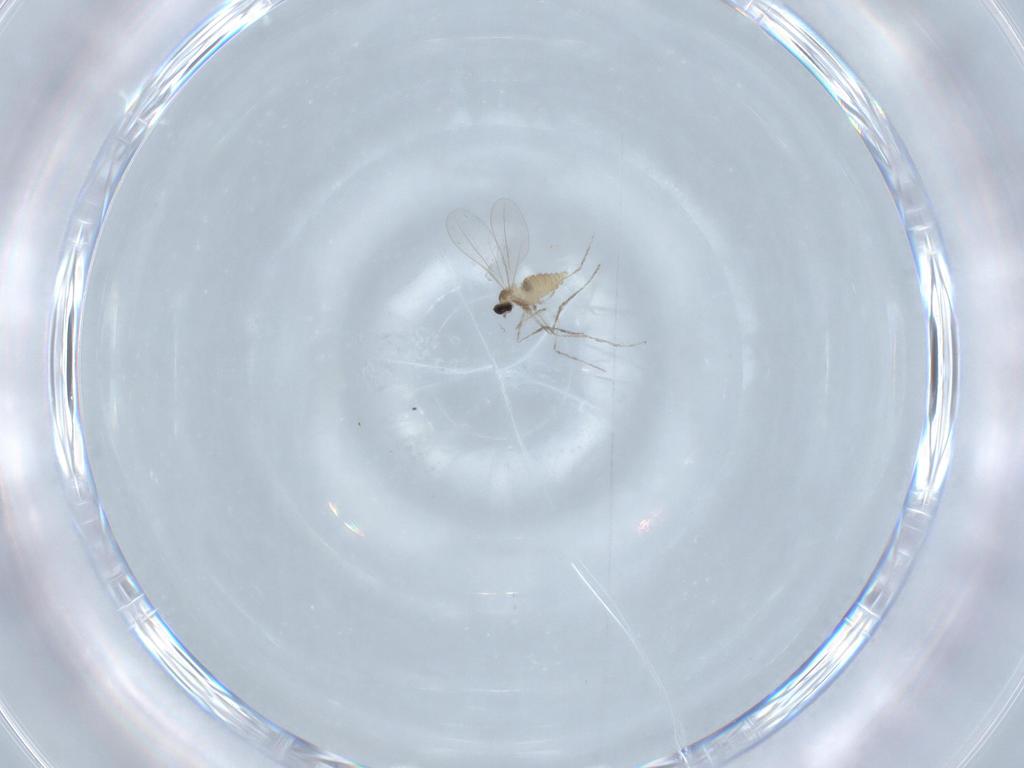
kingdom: Animalia
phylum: Arthropoda
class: Insecta
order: Diptera
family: Cecidomyiidae
